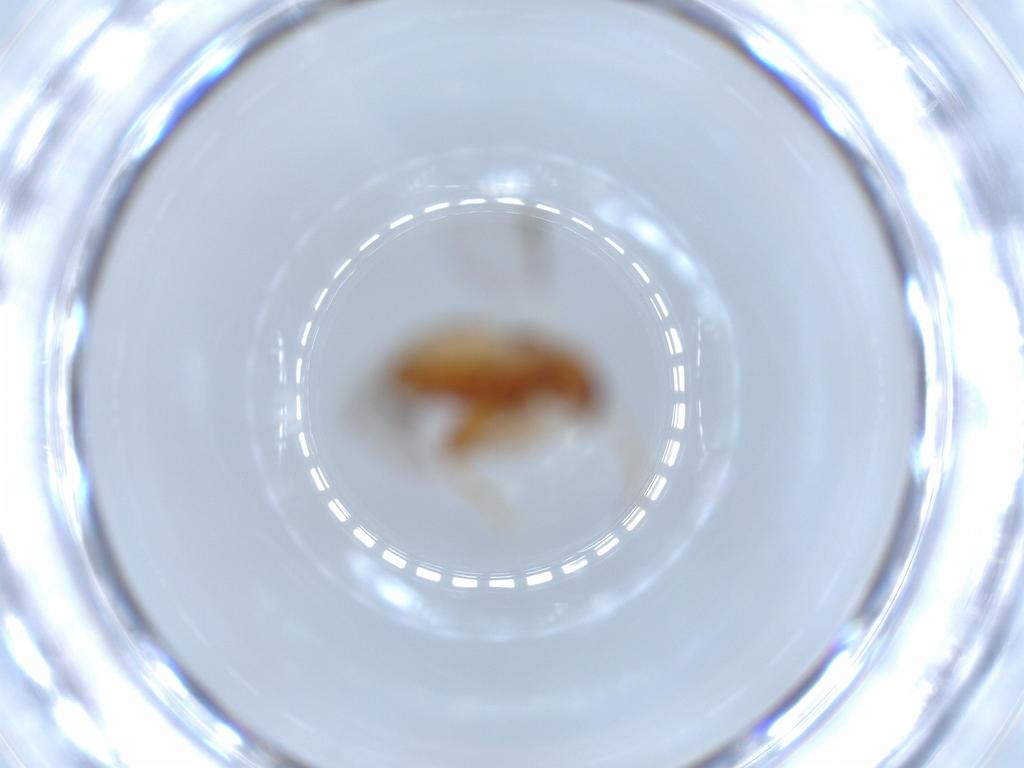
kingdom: Animalia
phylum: Arthropoda
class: Insecta
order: Coleoptera
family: Chrysomelidae
